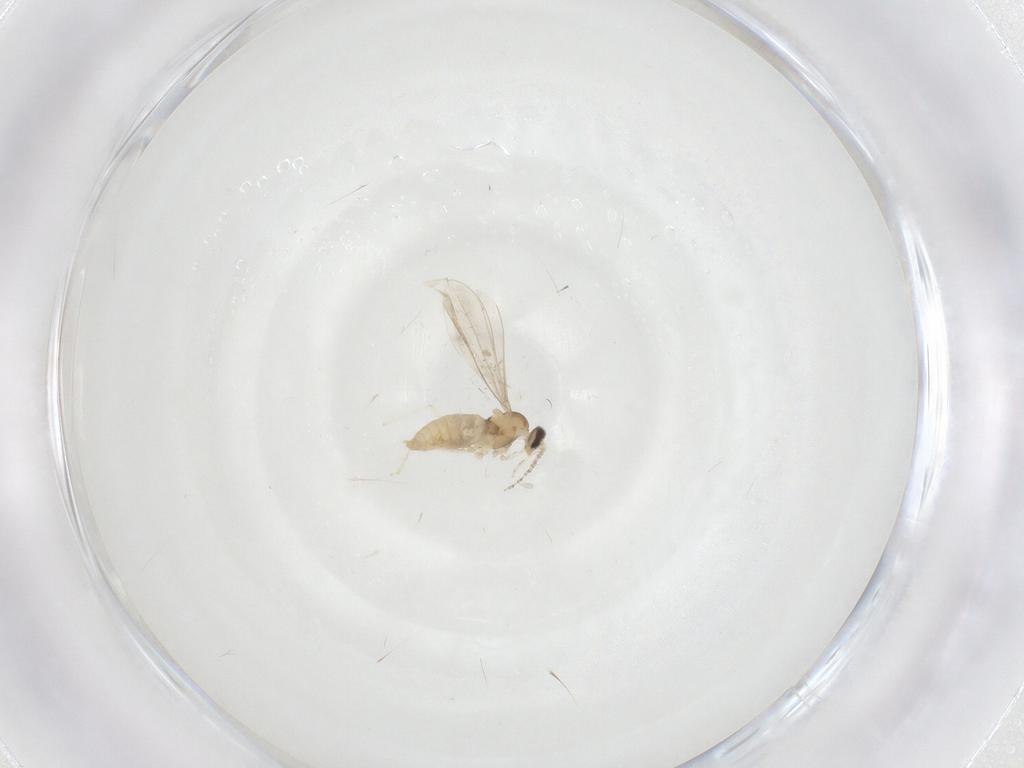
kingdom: Animalia
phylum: Arthropoda
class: Insecta
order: Diptera
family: Cecidomyiidae
